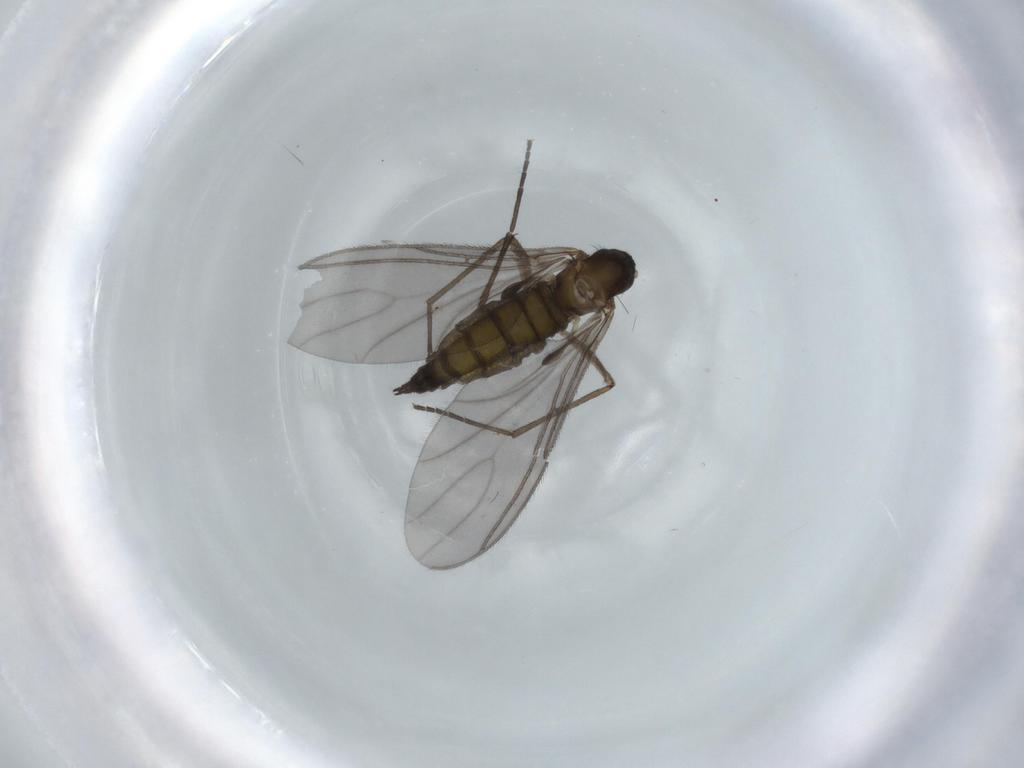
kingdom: Animalia
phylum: Arthropoda
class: Insecta
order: Diptera
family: Sciaridae
